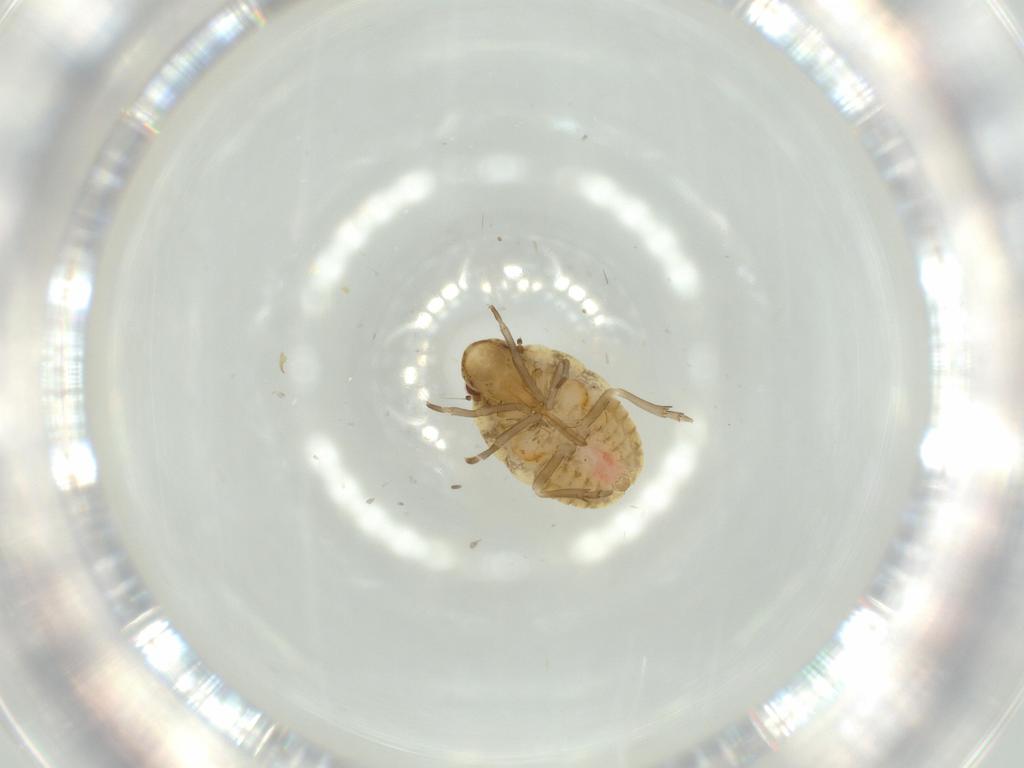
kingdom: Animalia
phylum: Arthropoda
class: Insecta
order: Hemiptera
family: Flatidae
